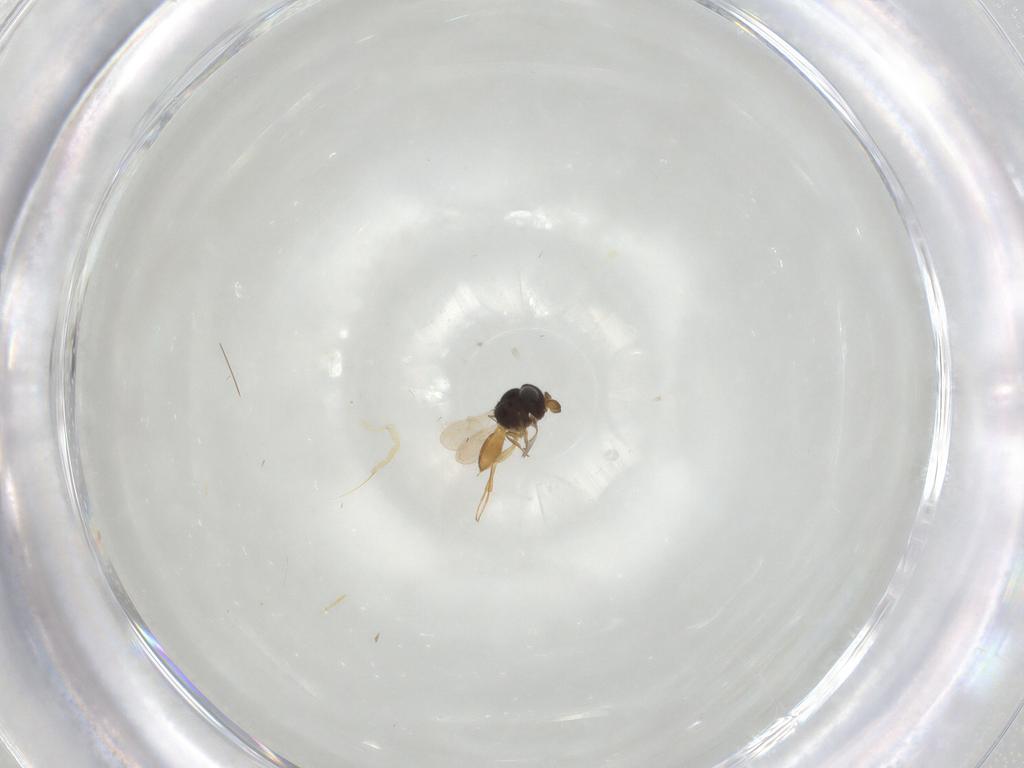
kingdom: Animalia
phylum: Arthropoda
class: Insecta
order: Hymenoptera
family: Scelionidae
